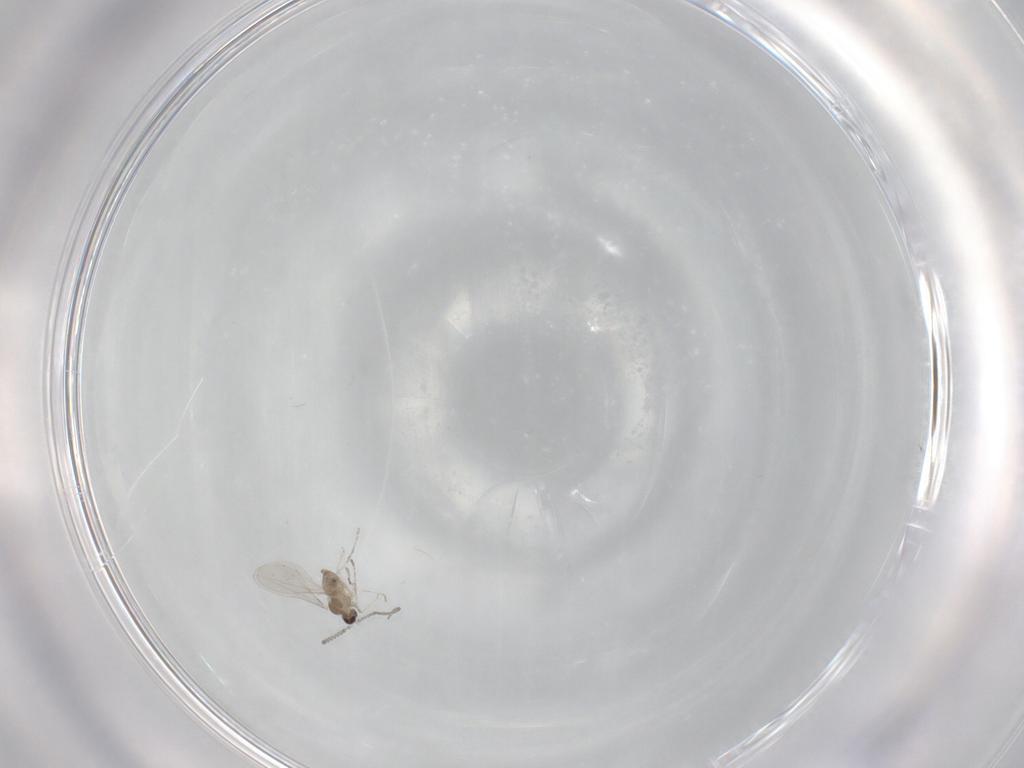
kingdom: Animalia
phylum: Arthropoda
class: Insecta
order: Diptera
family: Cecidomyiidae
